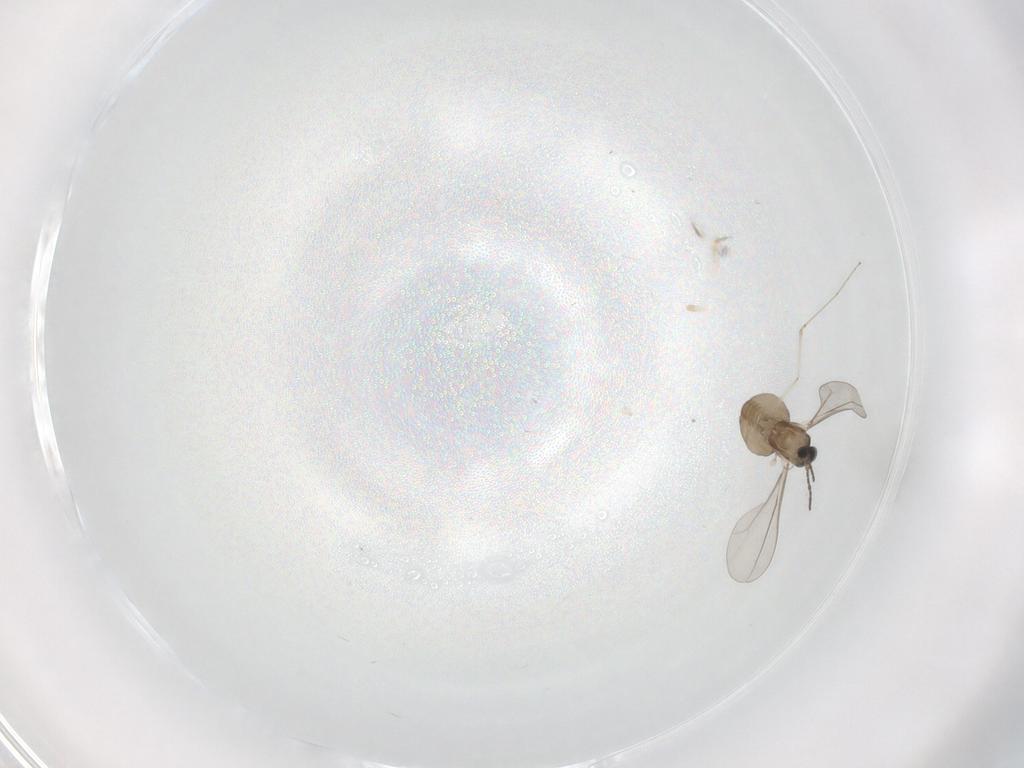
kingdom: Animalia
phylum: Arthropoda
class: Insecta
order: Diptera
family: Cecidomyiidae
